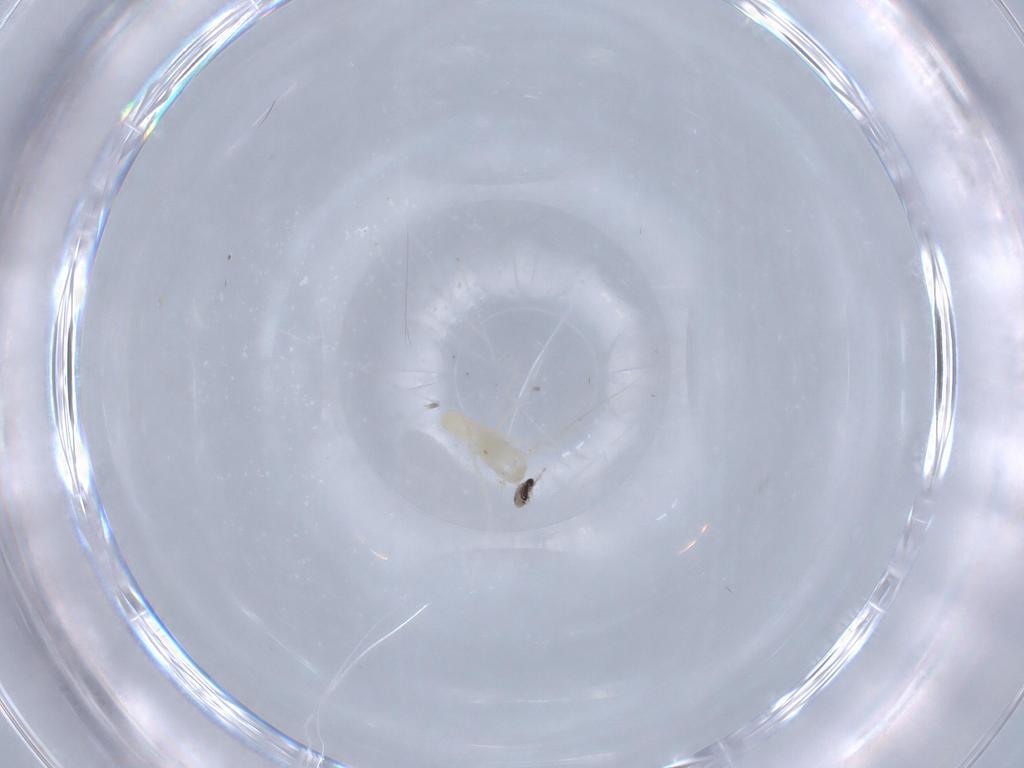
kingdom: Animalia
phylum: Arthropoda
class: Insecta
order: Diptera
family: Cecidomyiidae
